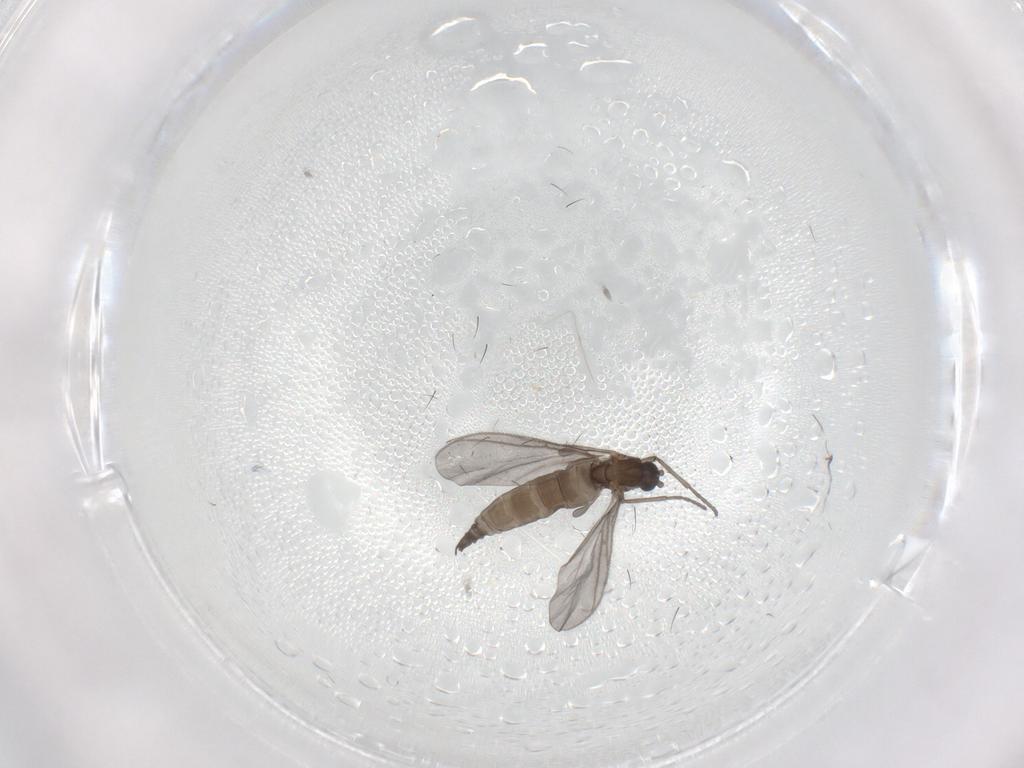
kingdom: Animalia
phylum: Arthropoda
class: Insecta
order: Diptera
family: Sciaridae
